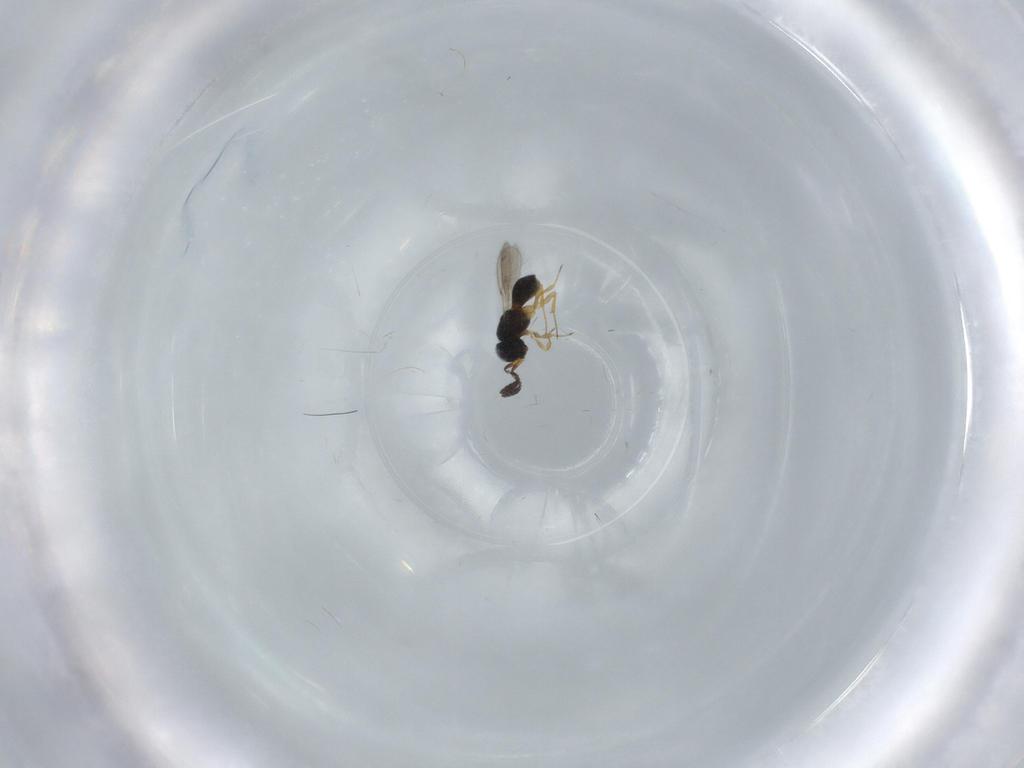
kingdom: Animalia
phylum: Arthropoda
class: Insecta
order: Hymenoptera
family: Scelionidae
